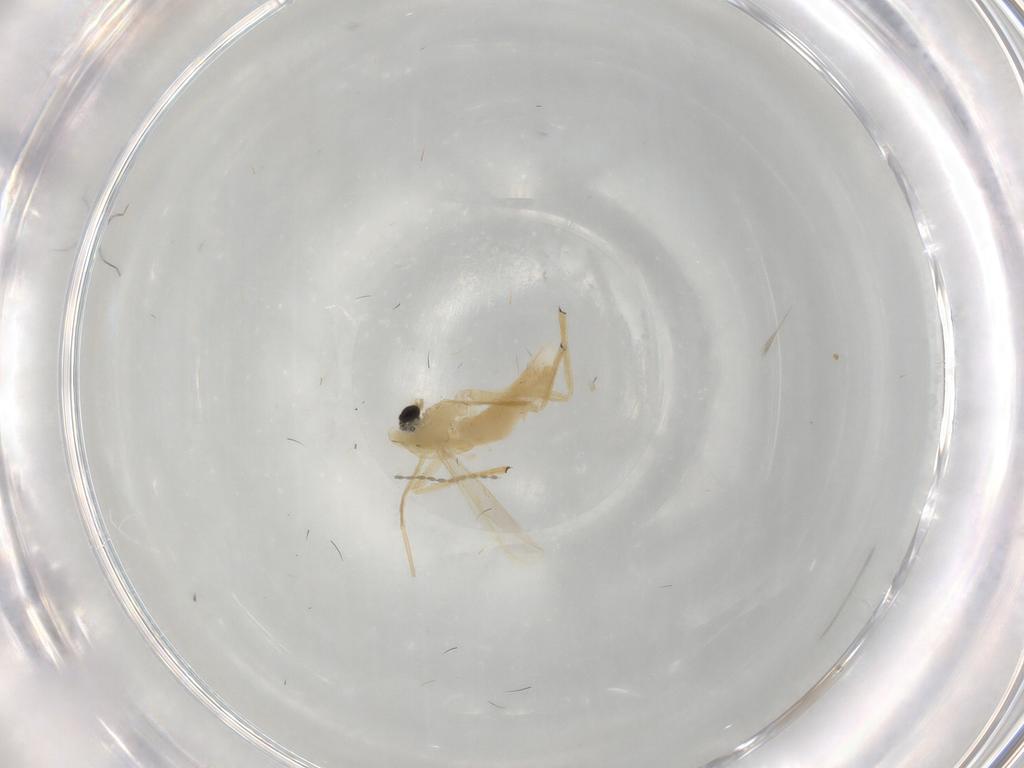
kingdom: Animalia
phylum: Arthropoda
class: Insecta
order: Diptera
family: Chironomidae
